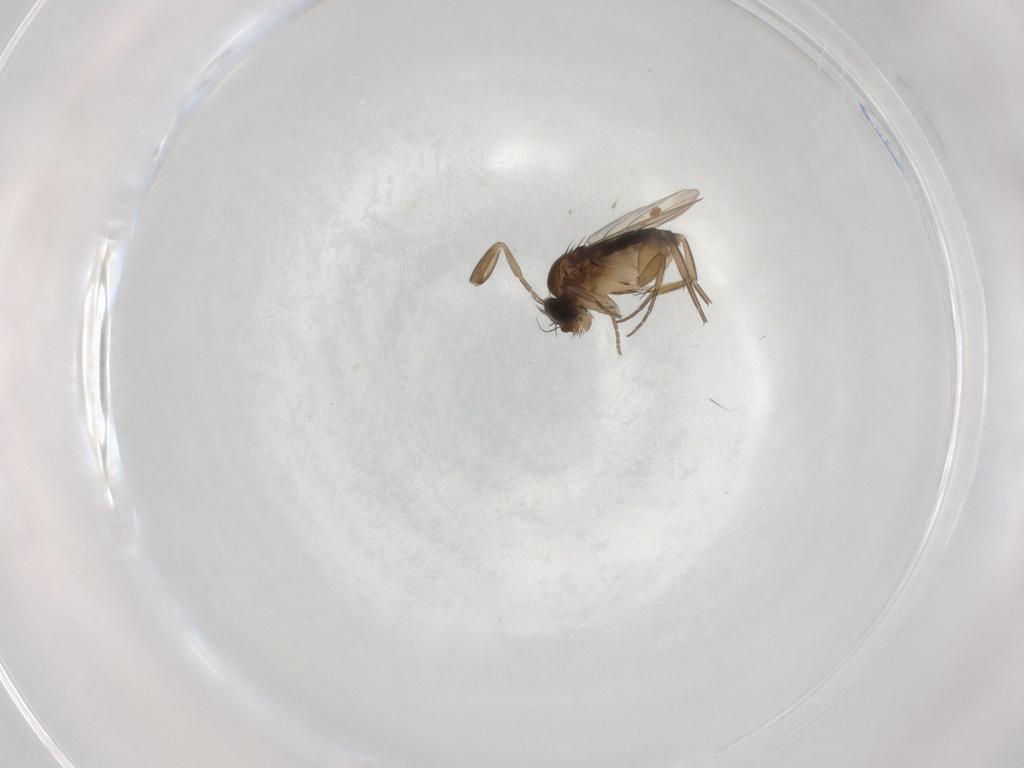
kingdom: Animalia
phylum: Arthropoda
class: Insecta
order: Diptera
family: Phoridae
